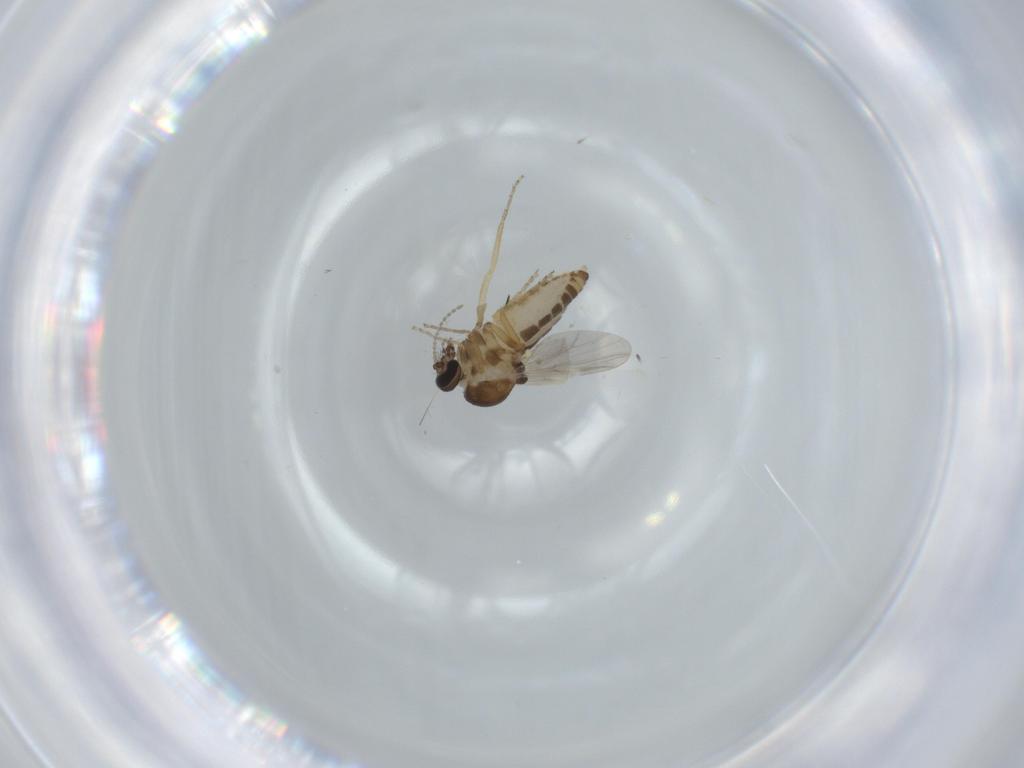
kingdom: Animalia
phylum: Arthropoda
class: Insecta
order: Diptera
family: Ceratopogonidae
